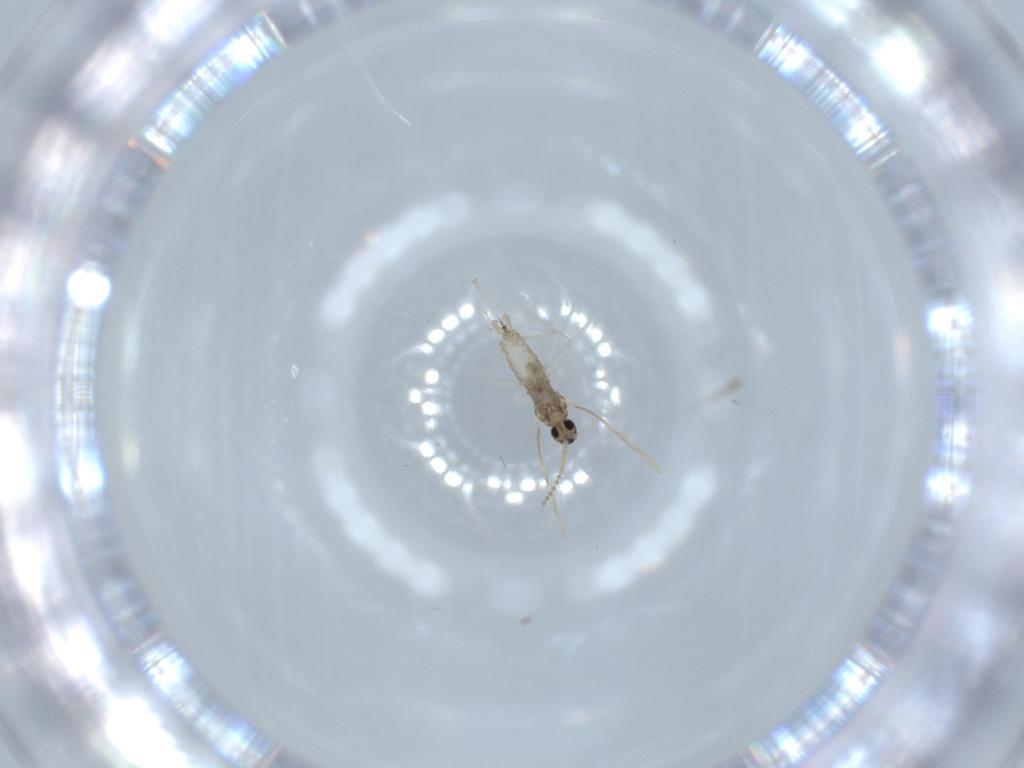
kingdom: Animalia
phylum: Arthropoda
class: Insecta
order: Diptera
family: Cecidomyiidae
